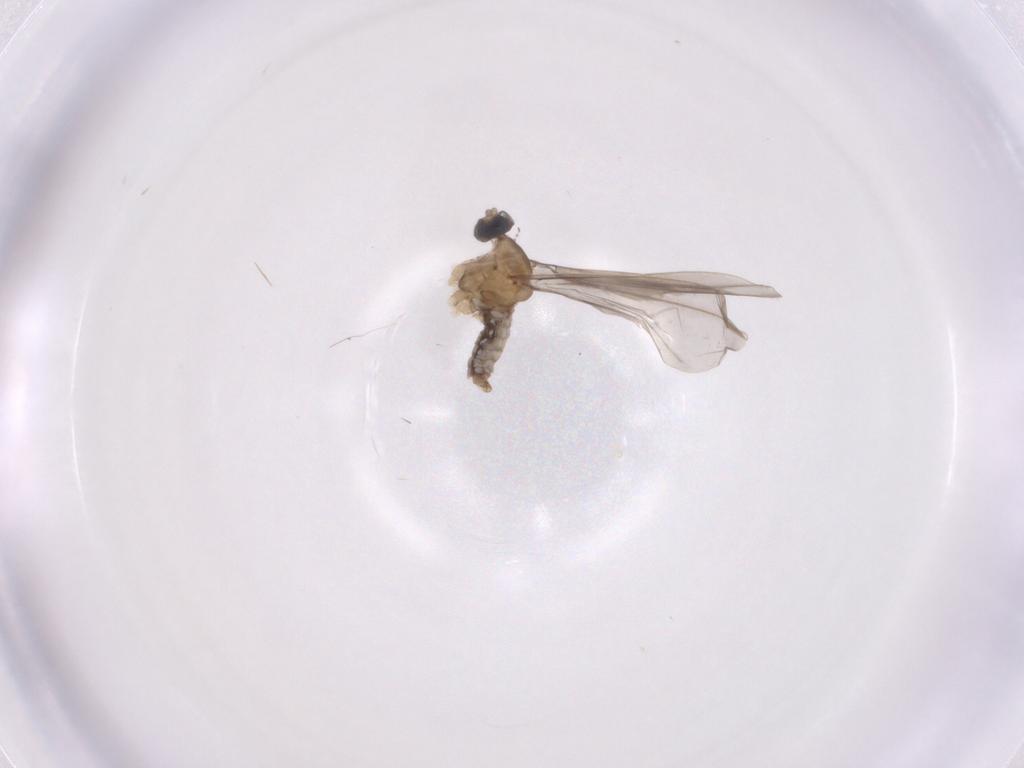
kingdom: Animalia
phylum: Arthropoda
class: Insecta
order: Diptera
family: Cecidomyiidae
